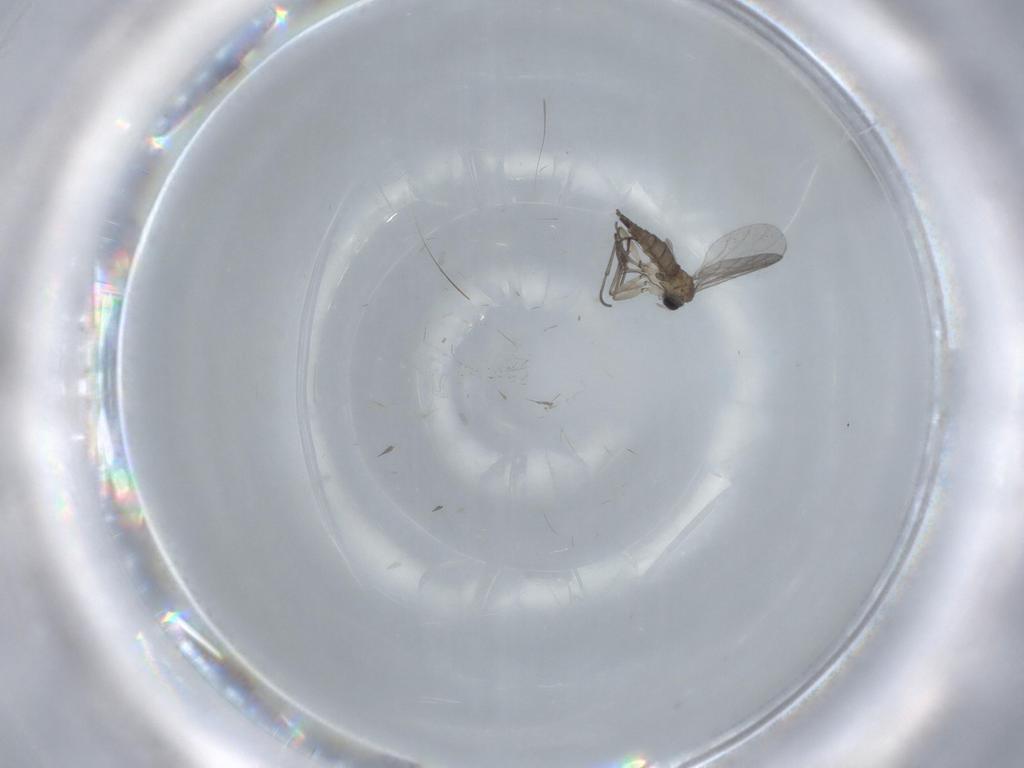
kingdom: Animalia
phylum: Arthropoda
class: Insecta
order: Diptera
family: Sciaridae
